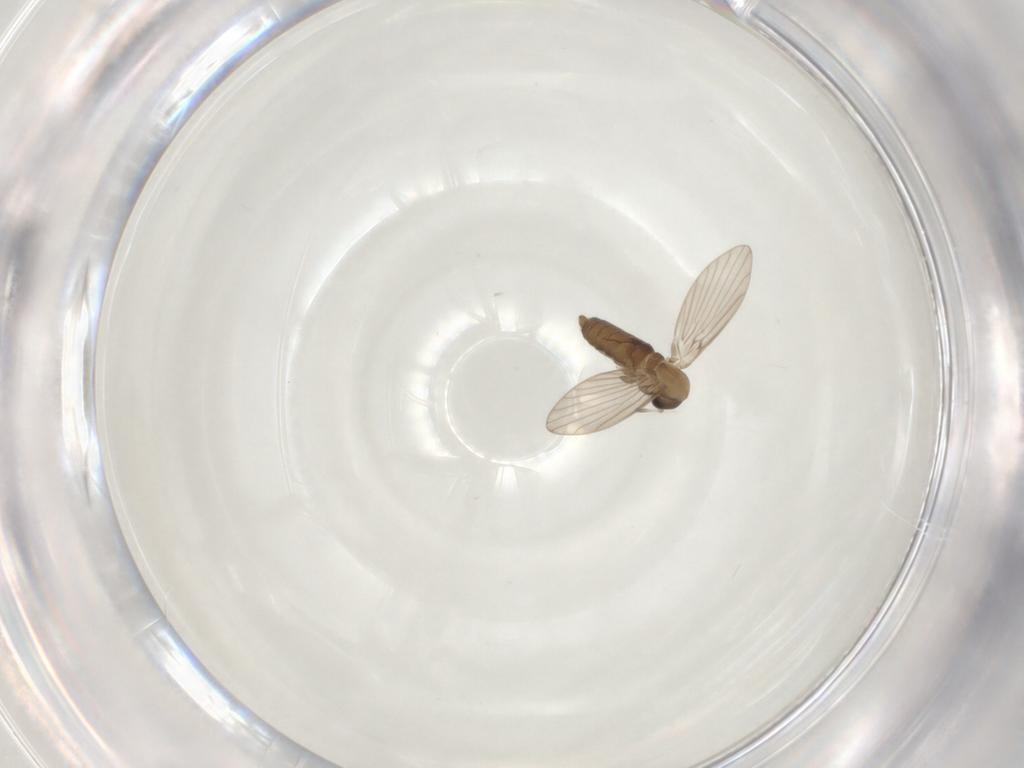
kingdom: Animalia
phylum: Arthropoda
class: Insecta
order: Diptera
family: Psychodidae
